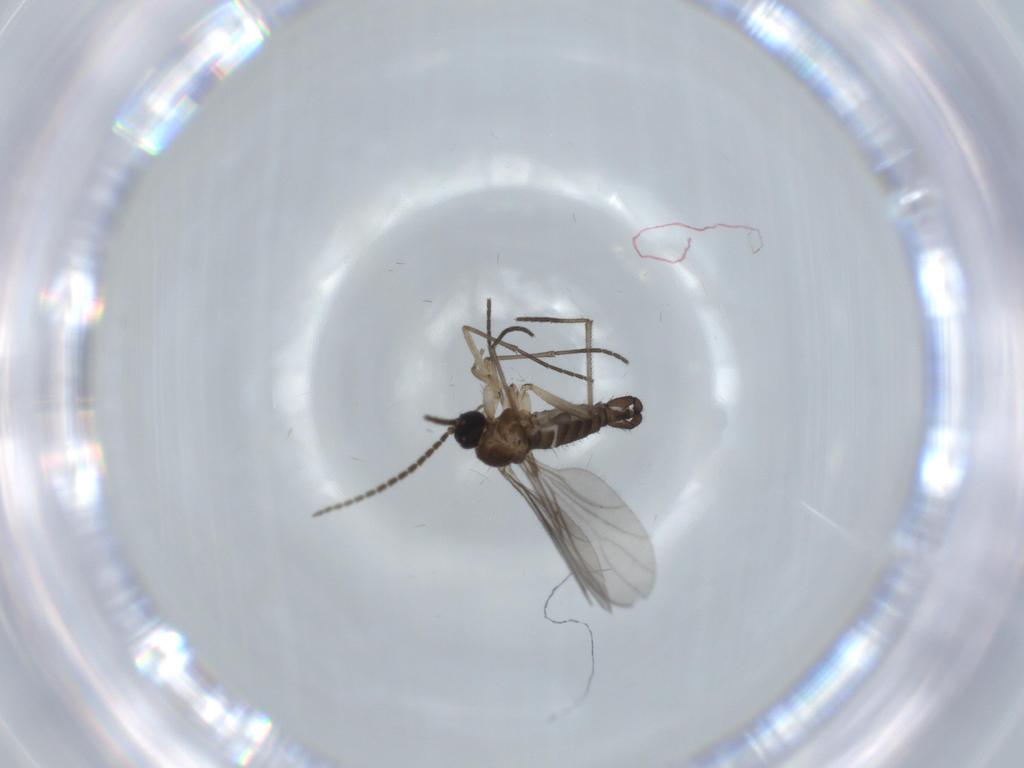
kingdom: Animalia
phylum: Arthropoda
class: Insecta
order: Diptera
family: Sciaridae
